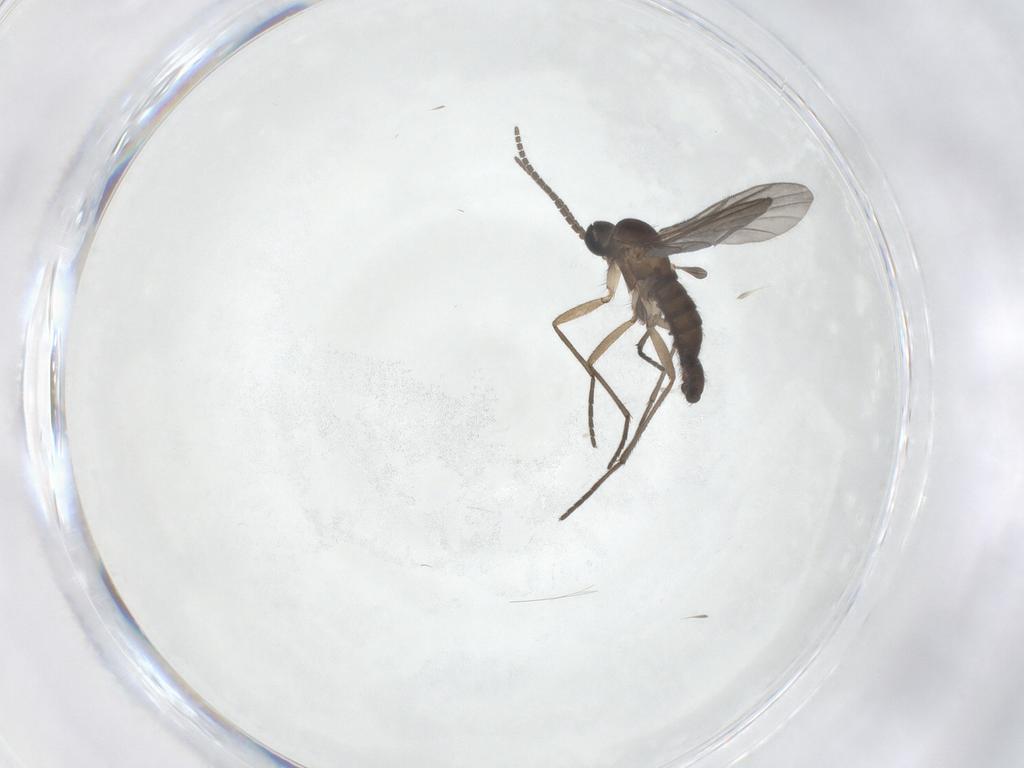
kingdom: Animalia
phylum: Arthropoda
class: Insecta
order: Diptera
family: Sciaridae
